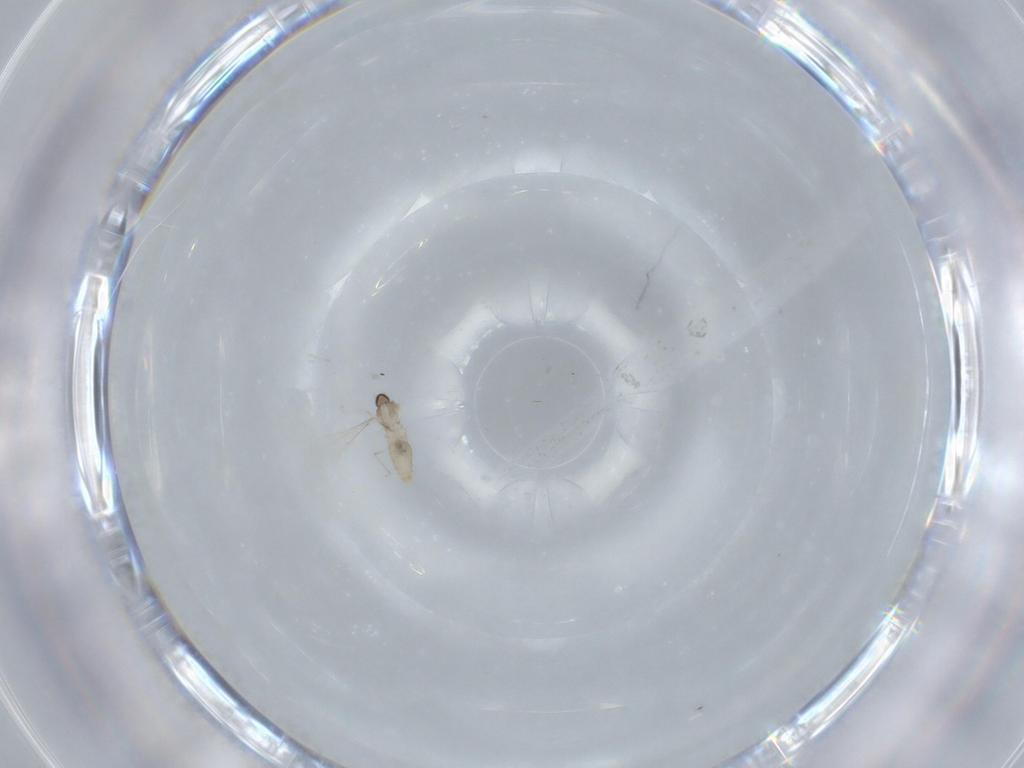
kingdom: Animalia
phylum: Arthropoda
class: Insecta
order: Diptera
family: Cecidomyiidae
